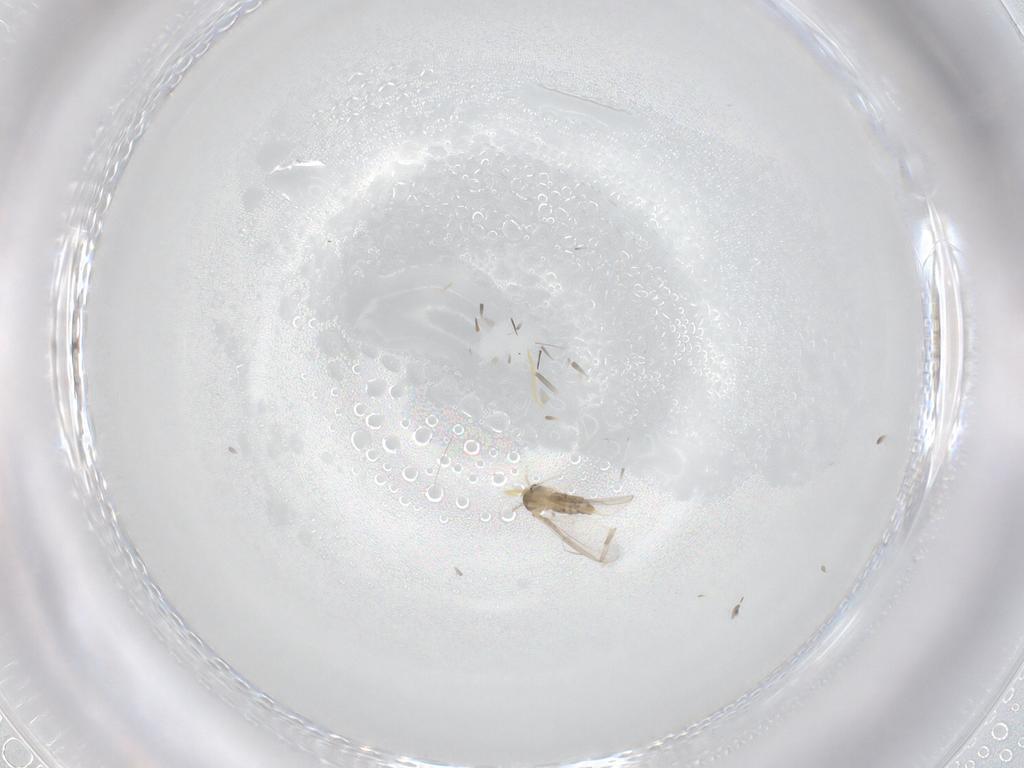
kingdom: Animalia
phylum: Arthropoda
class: Insecta
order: Diptera
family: Cecidomyiidae
